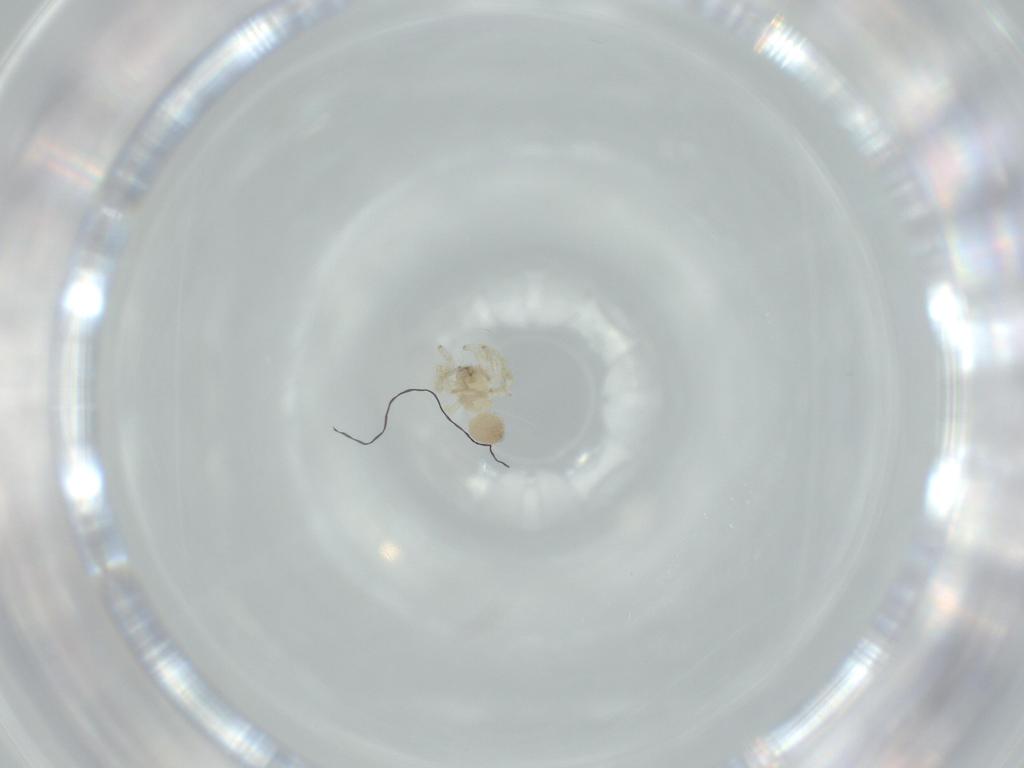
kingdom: Animalia
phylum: Arthropoda
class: Arachnida
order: Araneae
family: Oonopidae
